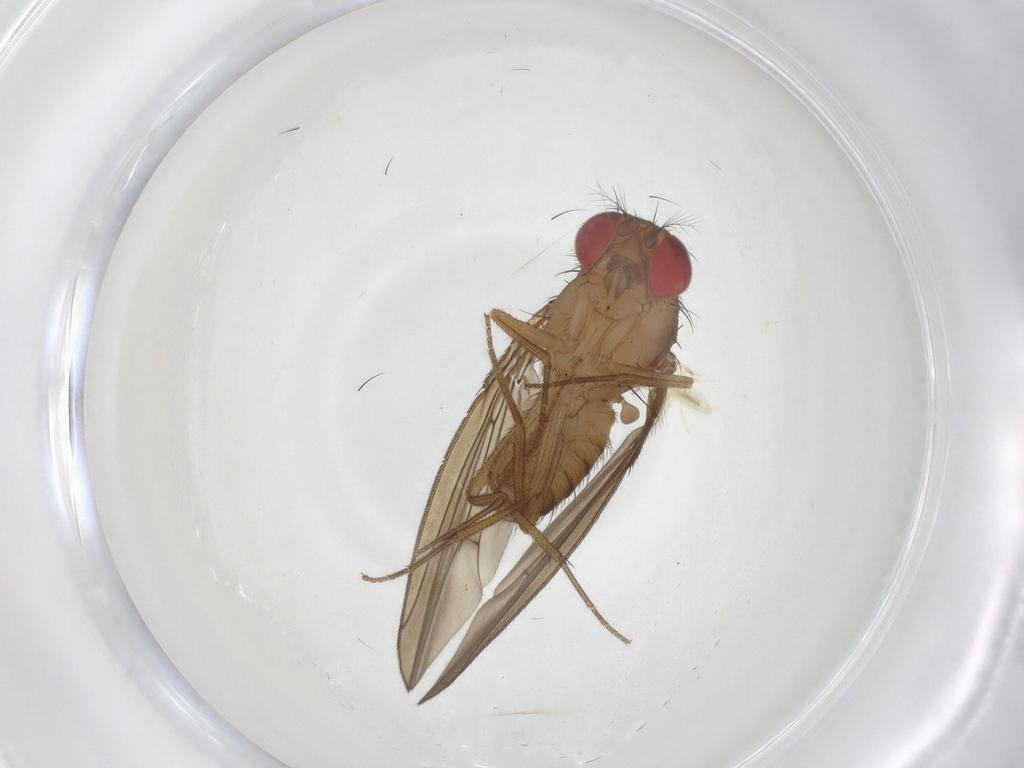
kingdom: Animalia
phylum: Arthropoda
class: Insecta
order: Diptera
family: Drosophilidae
